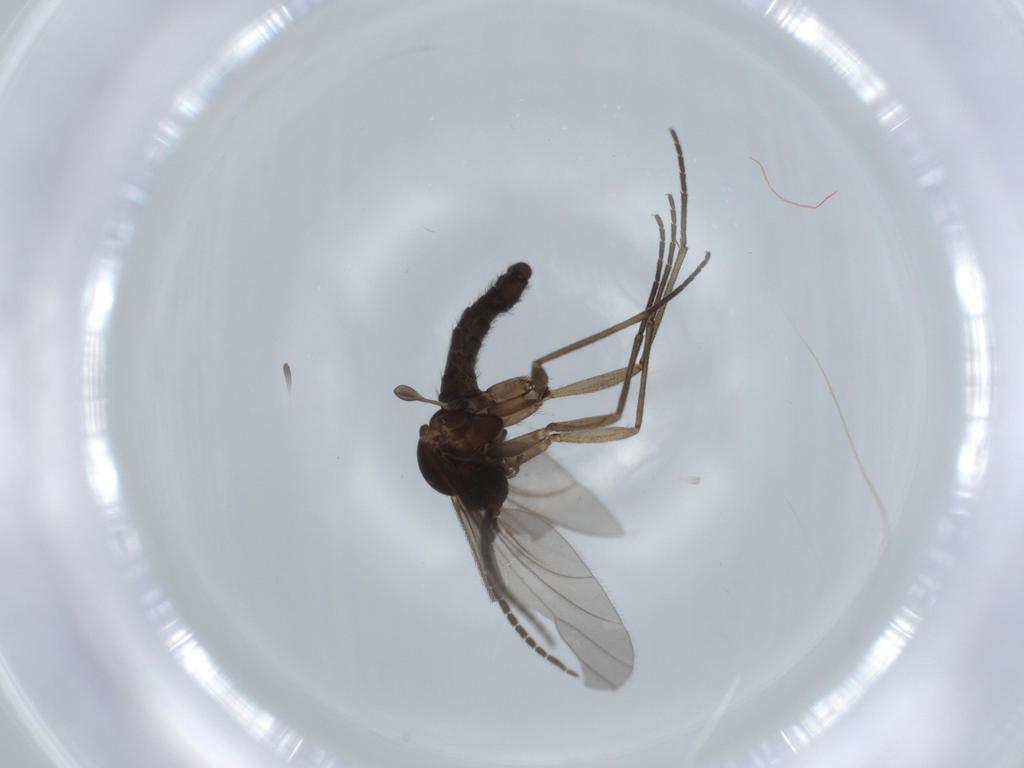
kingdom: Animalia
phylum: Arthropoda
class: Insecta
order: Diptera
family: Sciaridae
